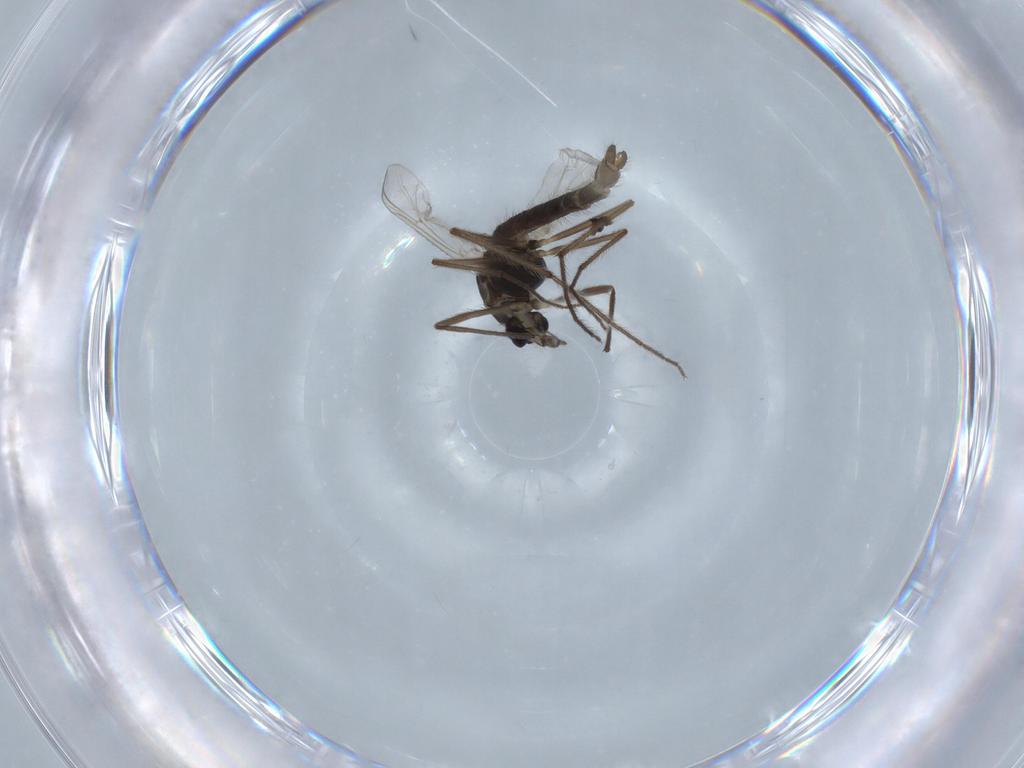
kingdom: Animalia
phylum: Arthropoda
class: Insecta
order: Diptera
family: Chironomidae
